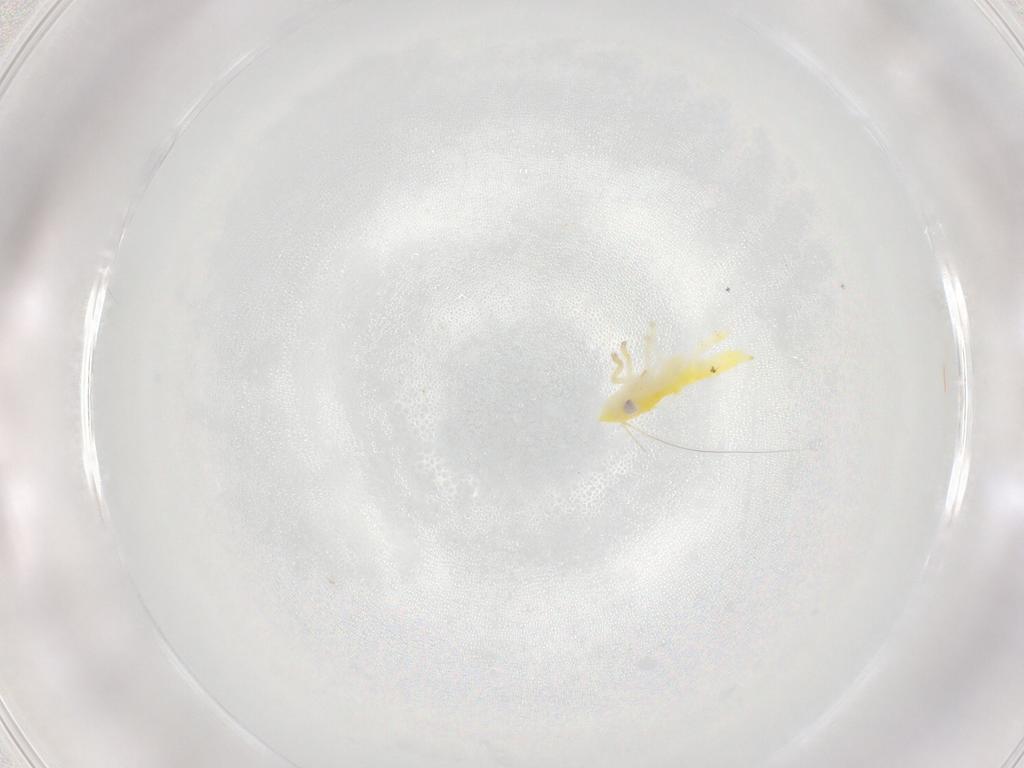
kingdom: Animalia
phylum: Arthropoda
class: Insecta
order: Hemiptera
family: Cicadellidae
